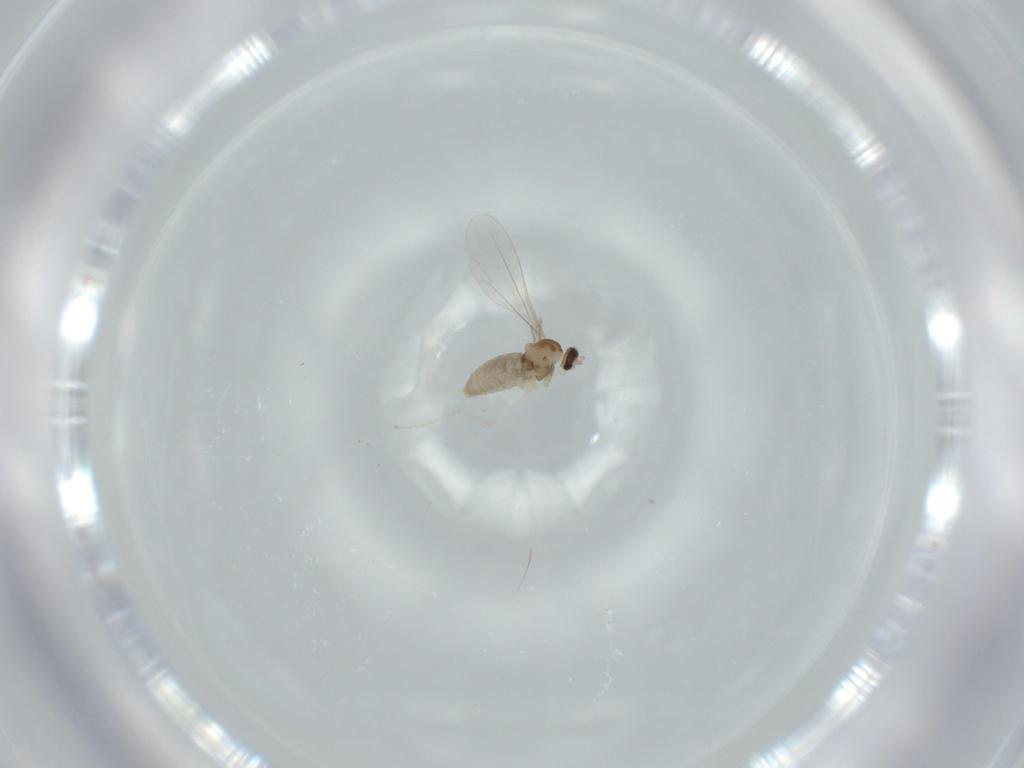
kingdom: Animalia
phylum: Arthropoda
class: Insecta
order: Diptera
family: Cecidomyiidae
